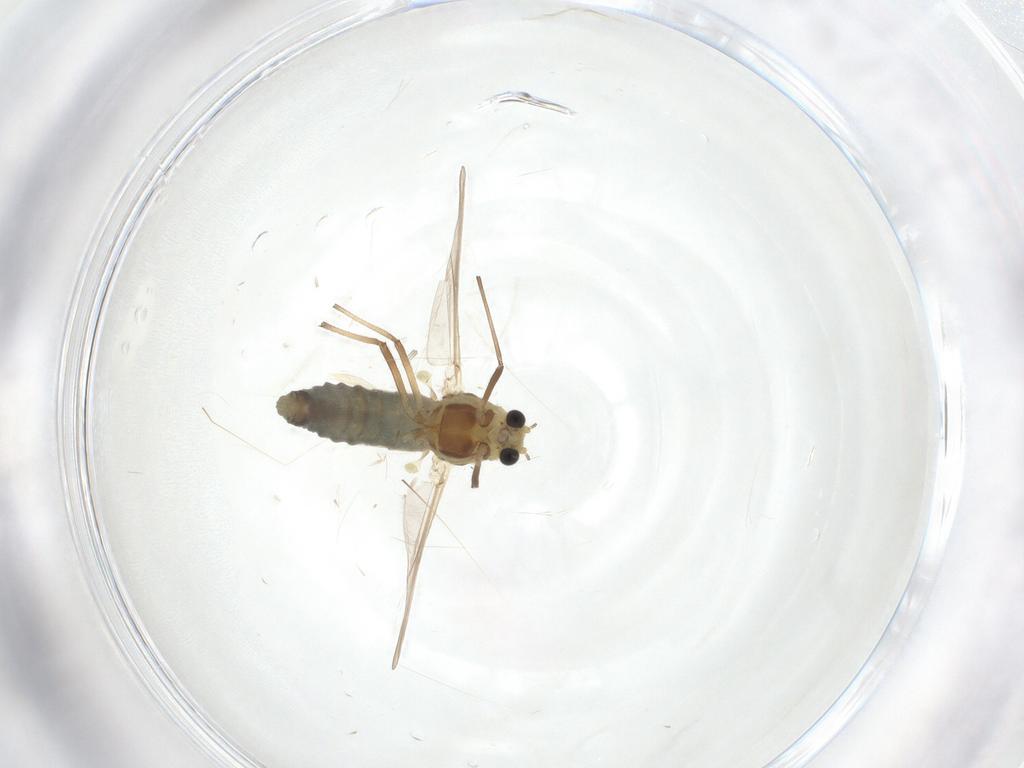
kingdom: Animalia
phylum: Arthropoda
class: Insecta
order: Diptera
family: Chironomidae
